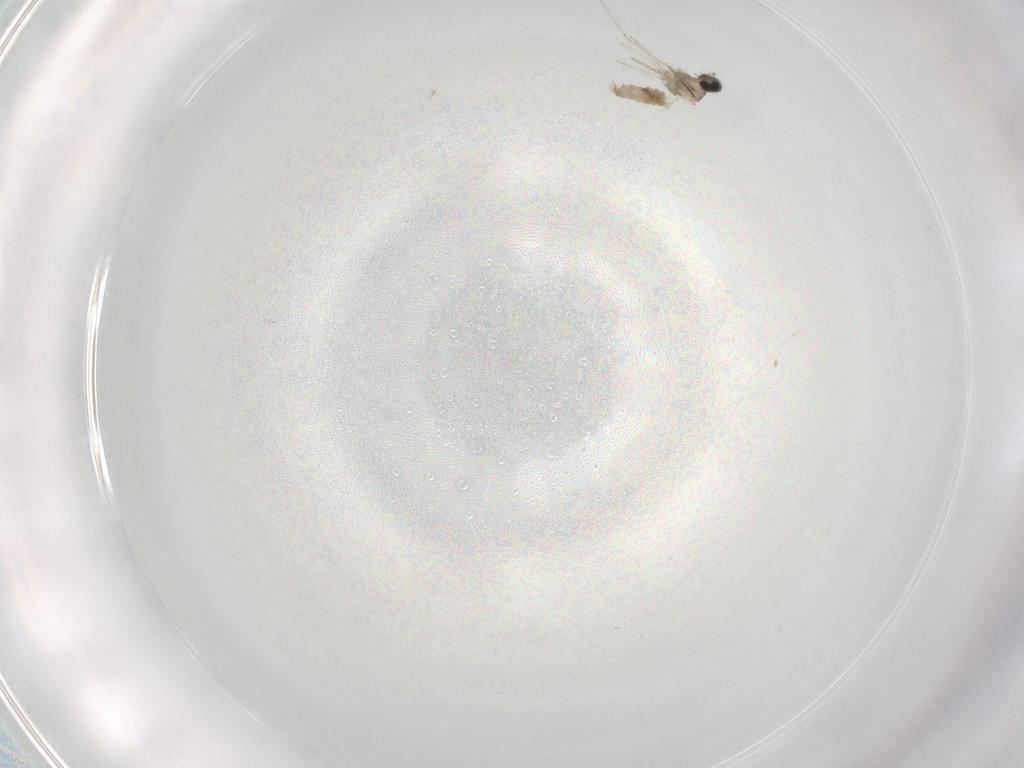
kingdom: Animalia
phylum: Arthropoda
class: Insecta
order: Diptera
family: Cecidomyiidae
